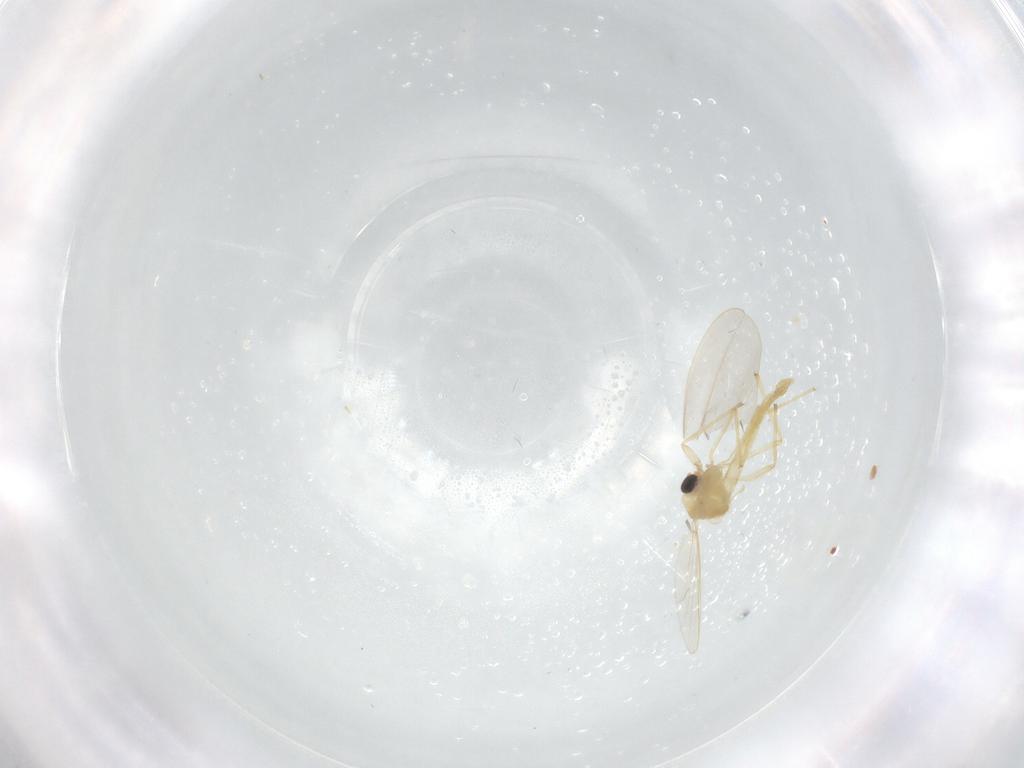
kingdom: Animalia
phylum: Arthropoda
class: Insecta
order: Diptera
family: Chironomidae
